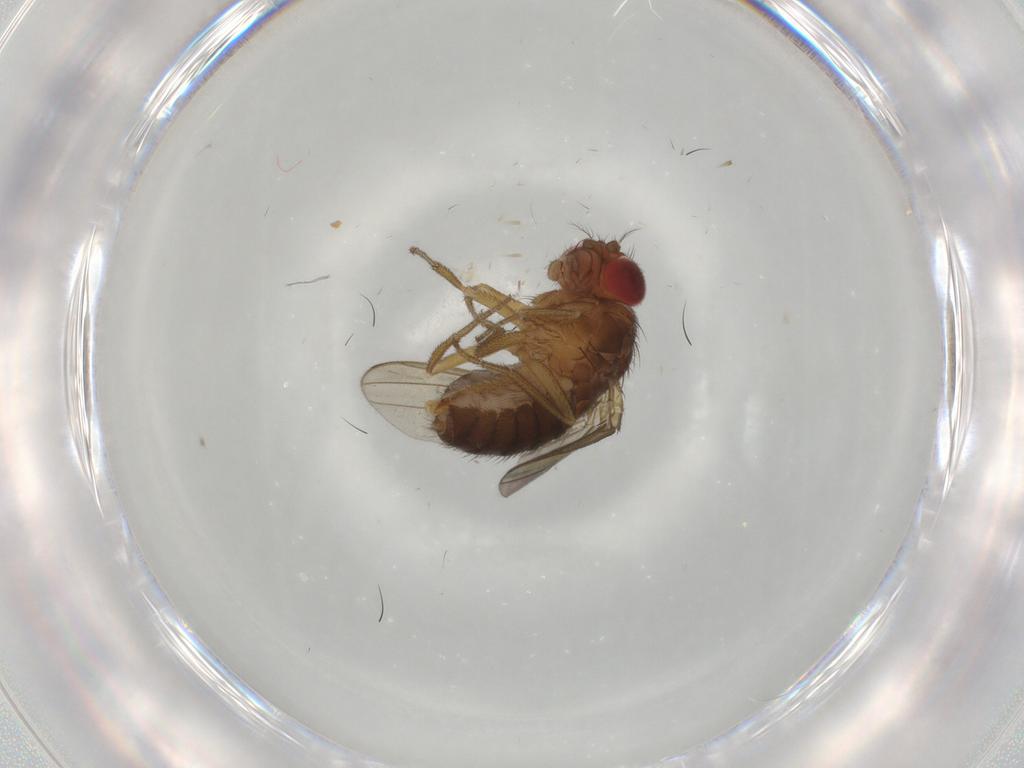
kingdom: Animalia
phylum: Arthropoda
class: Insecta
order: Diptera
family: Drosophilidae
